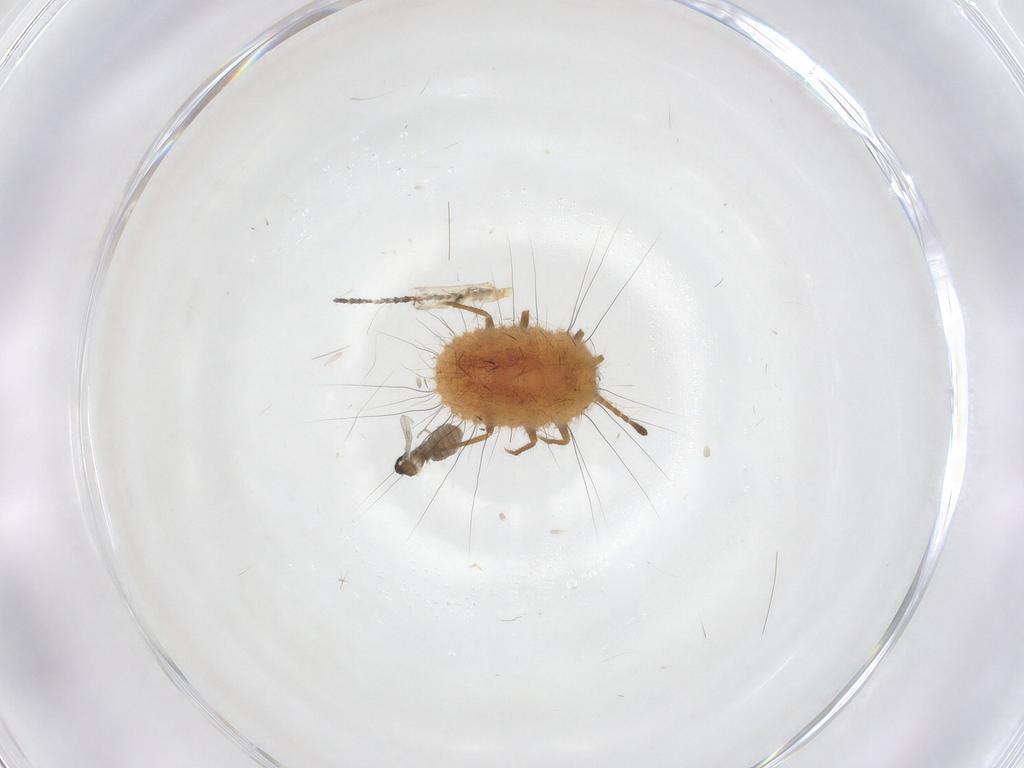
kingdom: Animalia
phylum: Arthropoda
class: Insecta
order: Diptera
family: Cecidomyiidae
